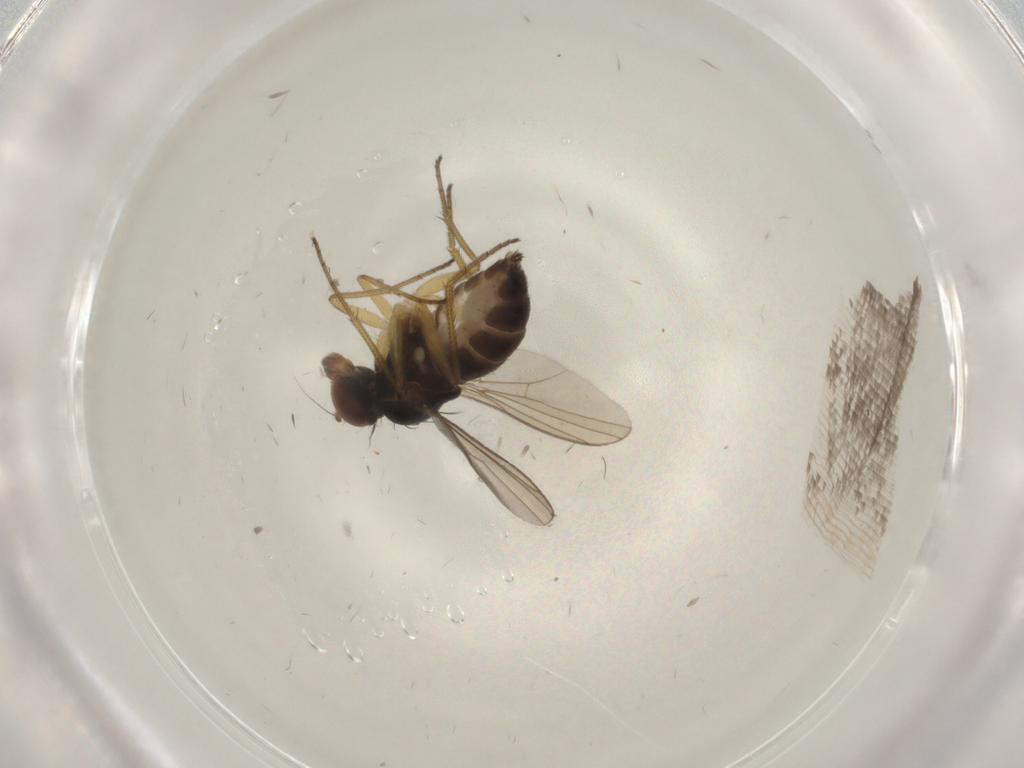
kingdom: Animalia
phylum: Arthropoda
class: Insecta
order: Diptera
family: Dolichopodidae
